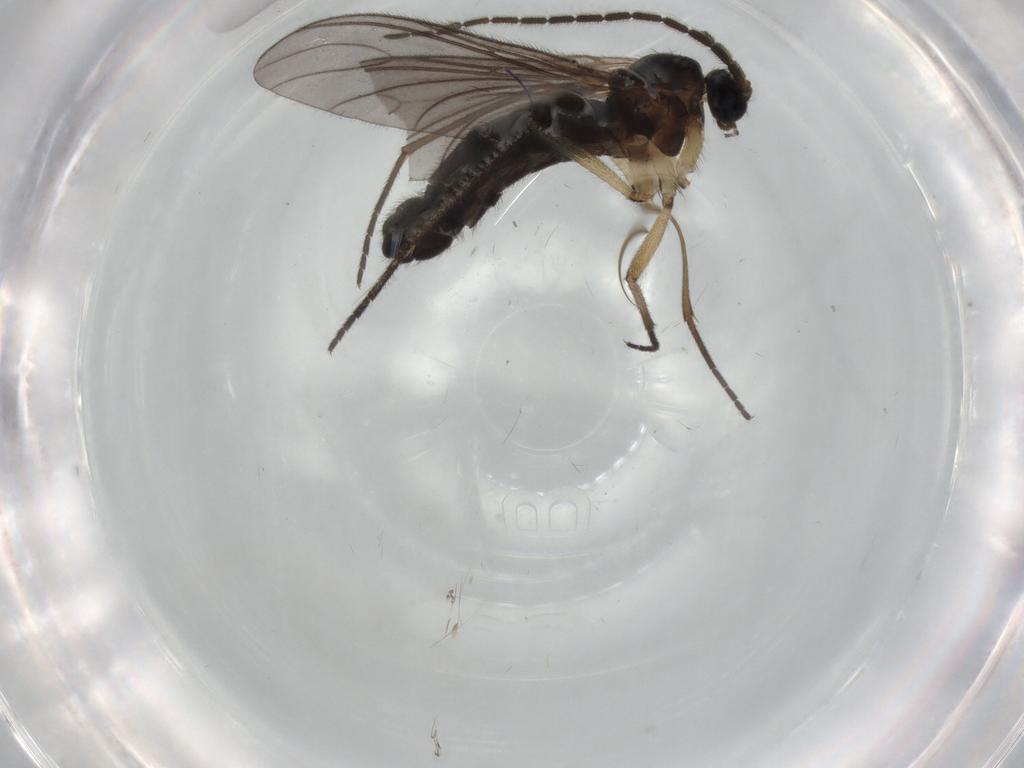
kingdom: Animalia
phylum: Arthropoda
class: Insecta
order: Diptera
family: Sciaridae
